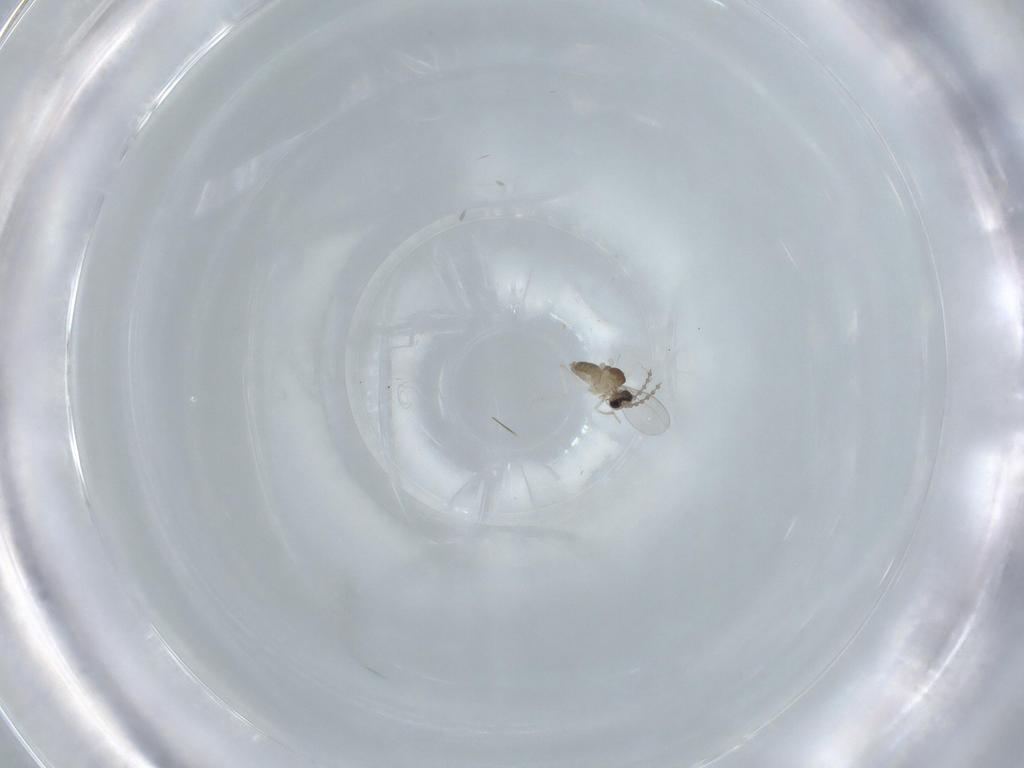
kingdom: Animalia
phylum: Arthropoda
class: Insecta
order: Diptera
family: Cecidomyiidae
